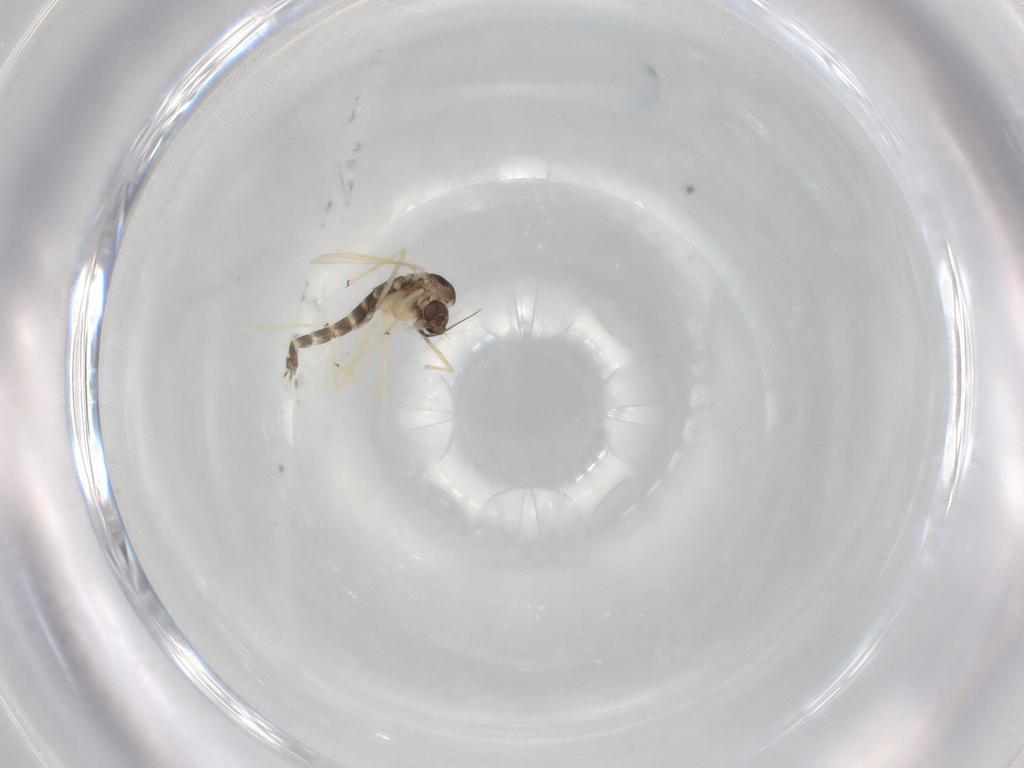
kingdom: Animalia
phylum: Arthropoda
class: Insecta
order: Diptera
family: Chironomidae
